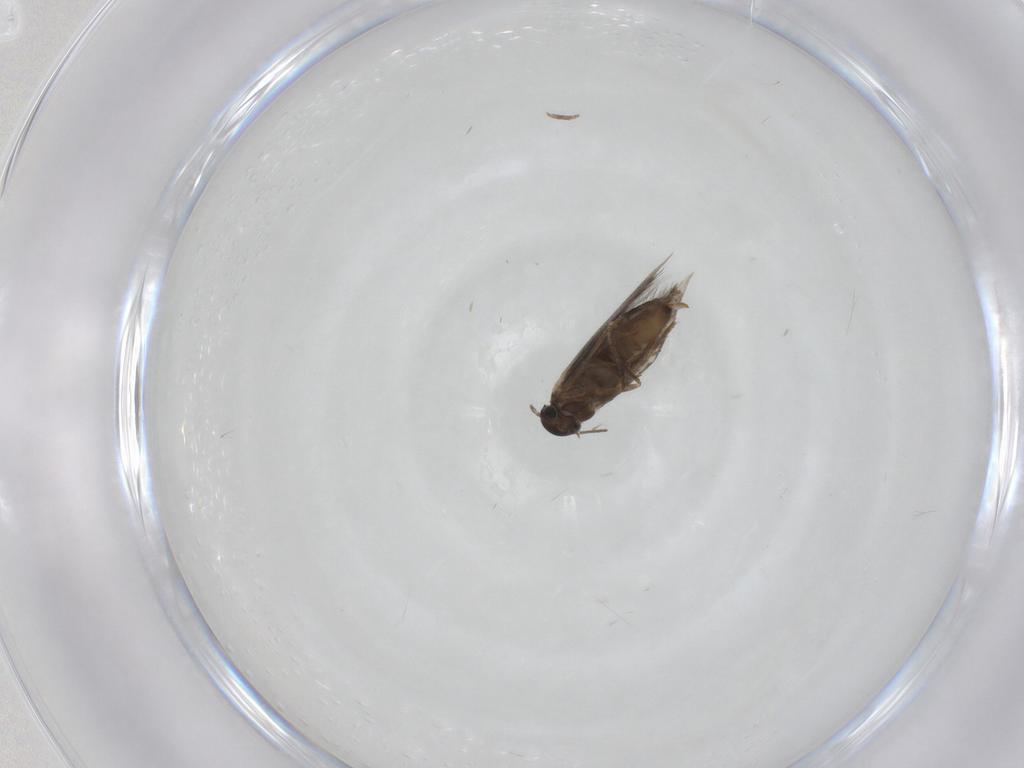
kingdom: Animalia
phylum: Arthropoda
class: Insecta
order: Lepidoptera
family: Heliozelidae
